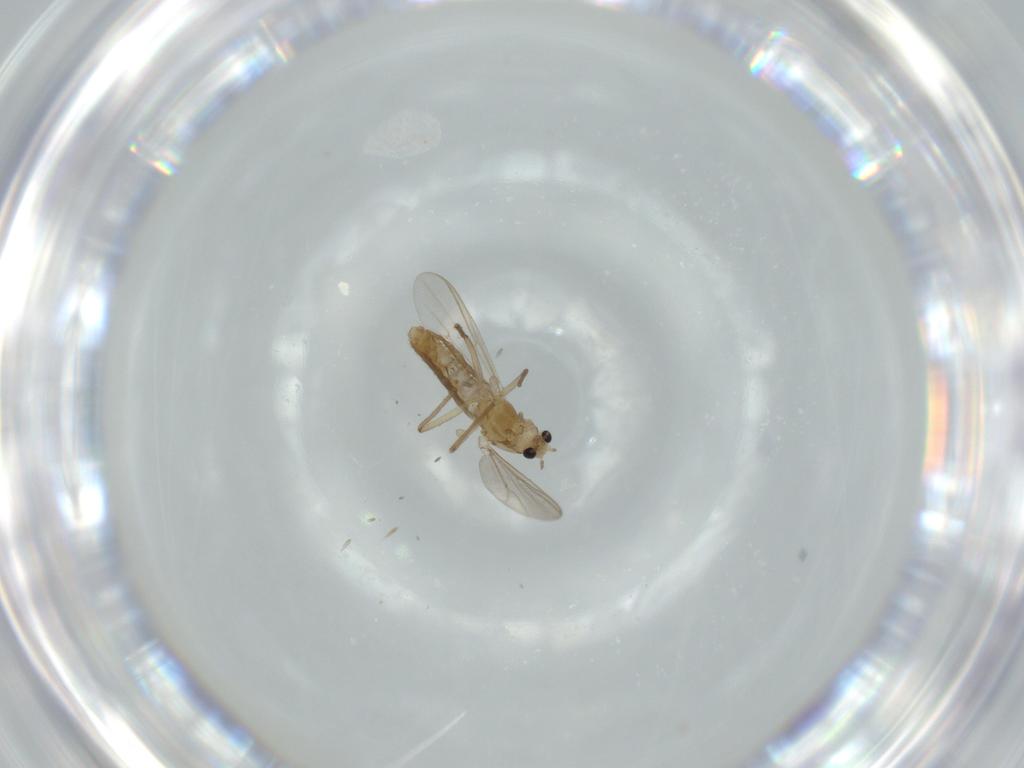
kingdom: Animalia
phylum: Arthropoda
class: Insecta
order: Diptera
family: Chironomidae
